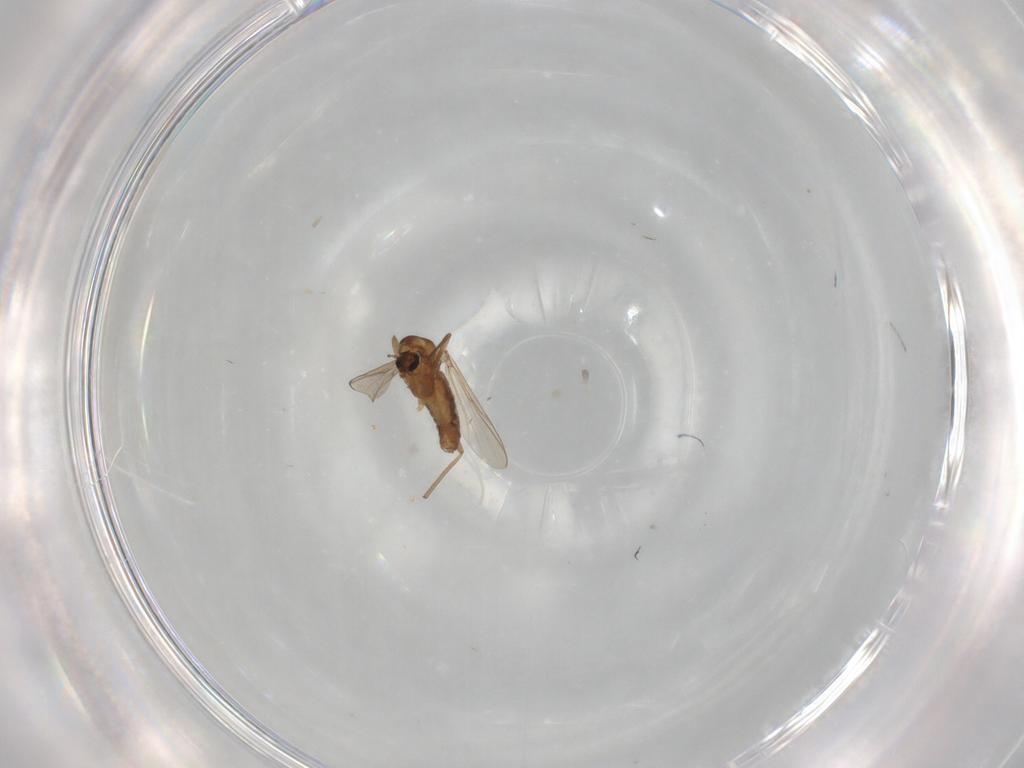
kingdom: Animalia
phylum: Arthropoda
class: Insecta
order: Diptera
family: Chironomidae
